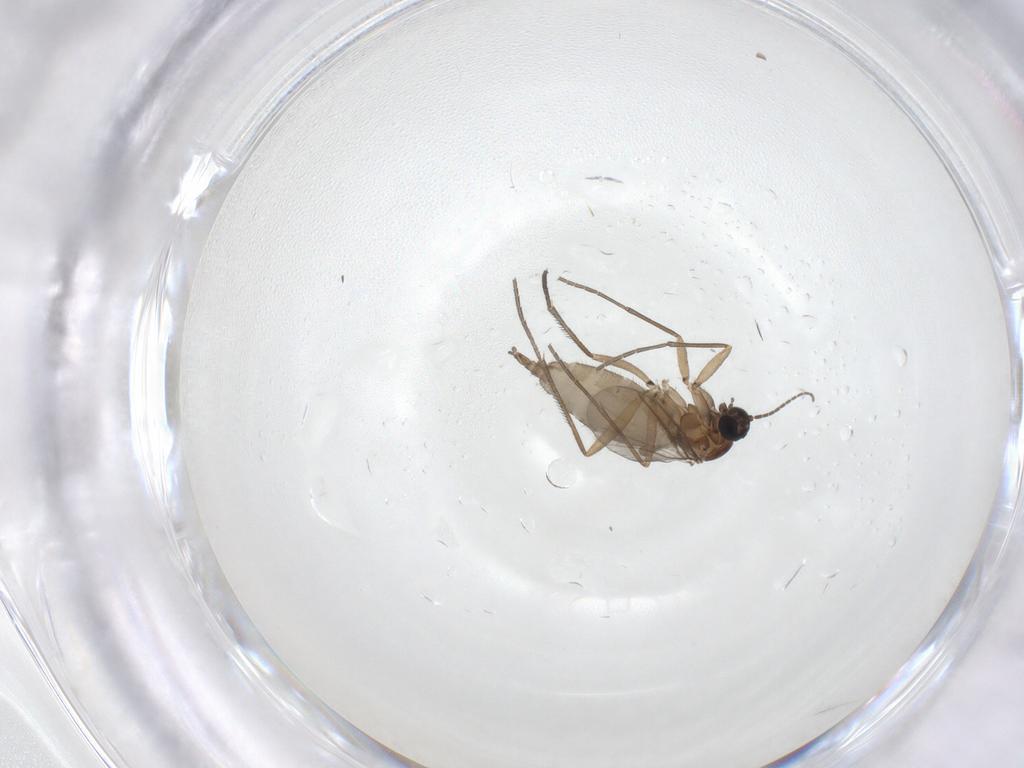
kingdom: Animalia
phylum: Arthropoda
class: Insecta
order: Diptera
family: Sciaridae
